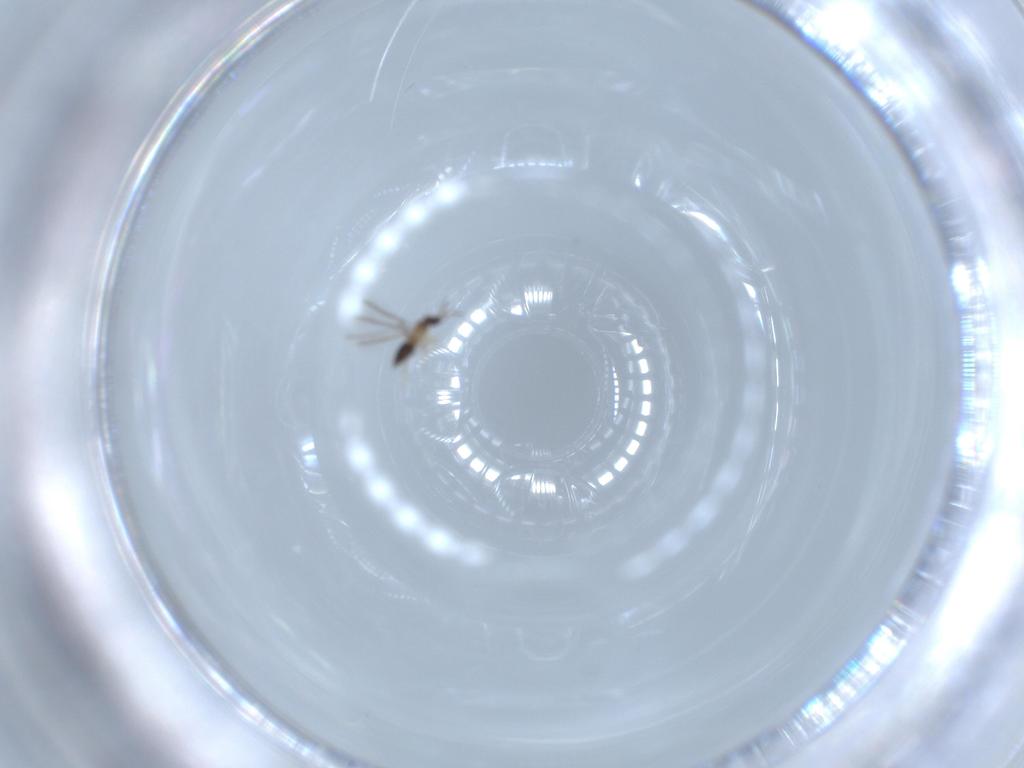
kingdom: Animalia
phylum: Arthropoda
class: Insecta
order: Hymenoptera
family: Mymaridae
